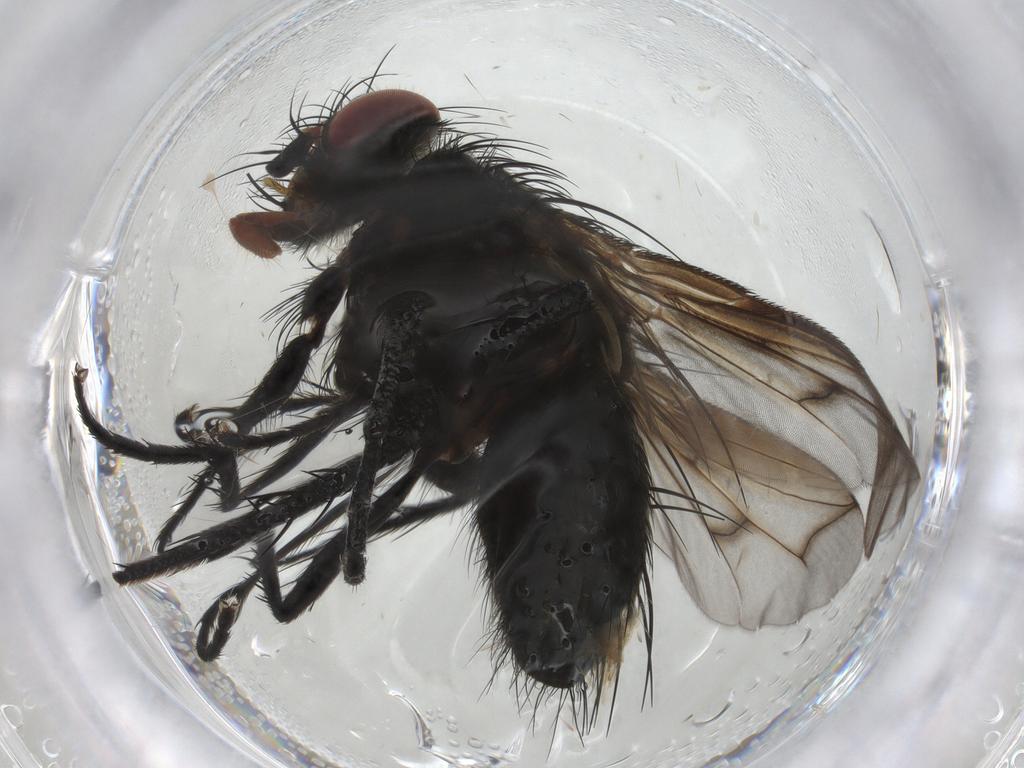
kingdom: Animalia
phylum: Arthropoda
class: Insecta
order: Diptera
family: Tachinidae
